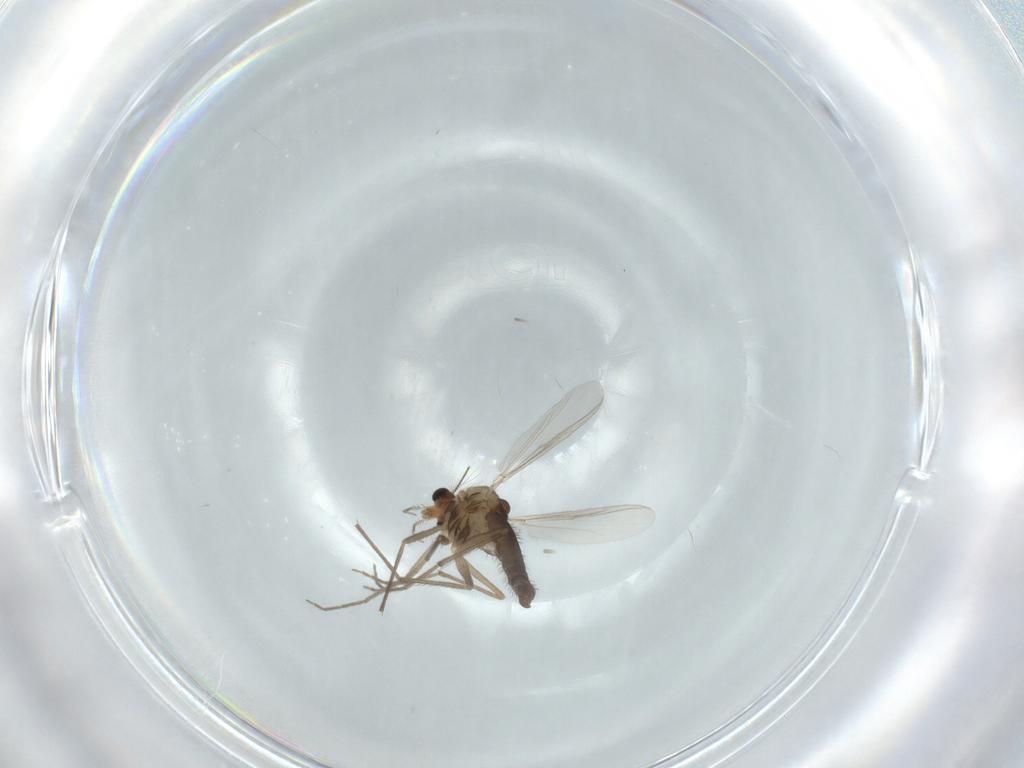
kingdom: Animalia
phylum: Arthropoda
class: Insecta
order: Diptera
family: Chironomidae
